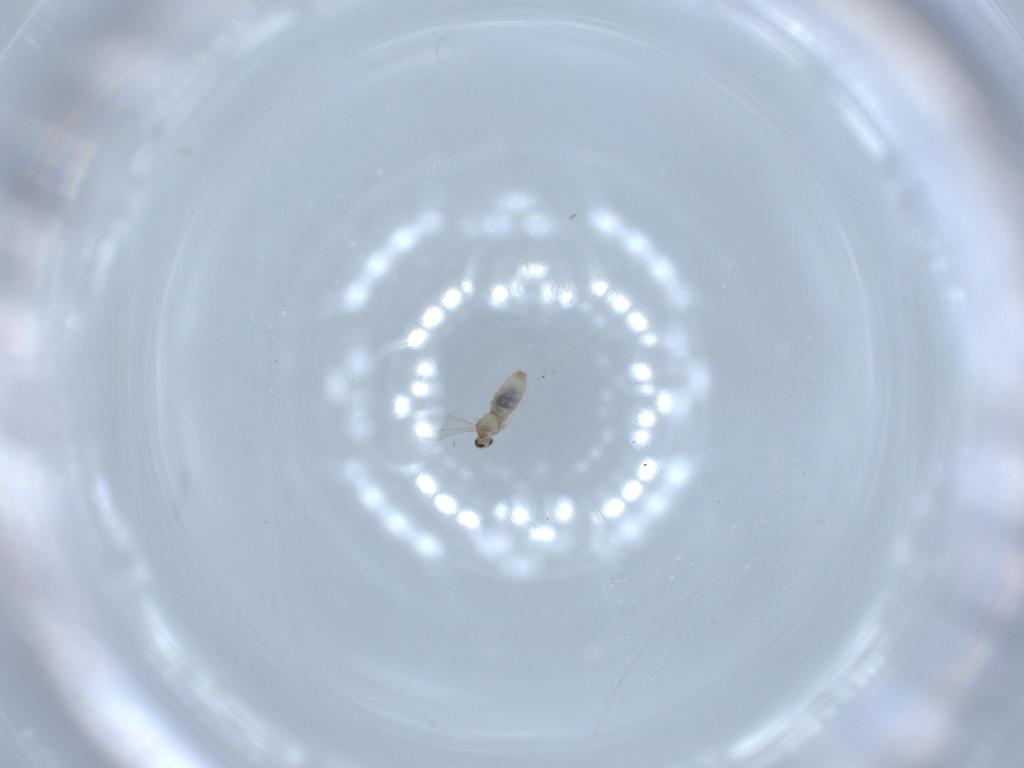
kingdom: Animalia
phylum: Arthropoda
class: Insecta
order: Diptera
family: Cecidomyiidae
